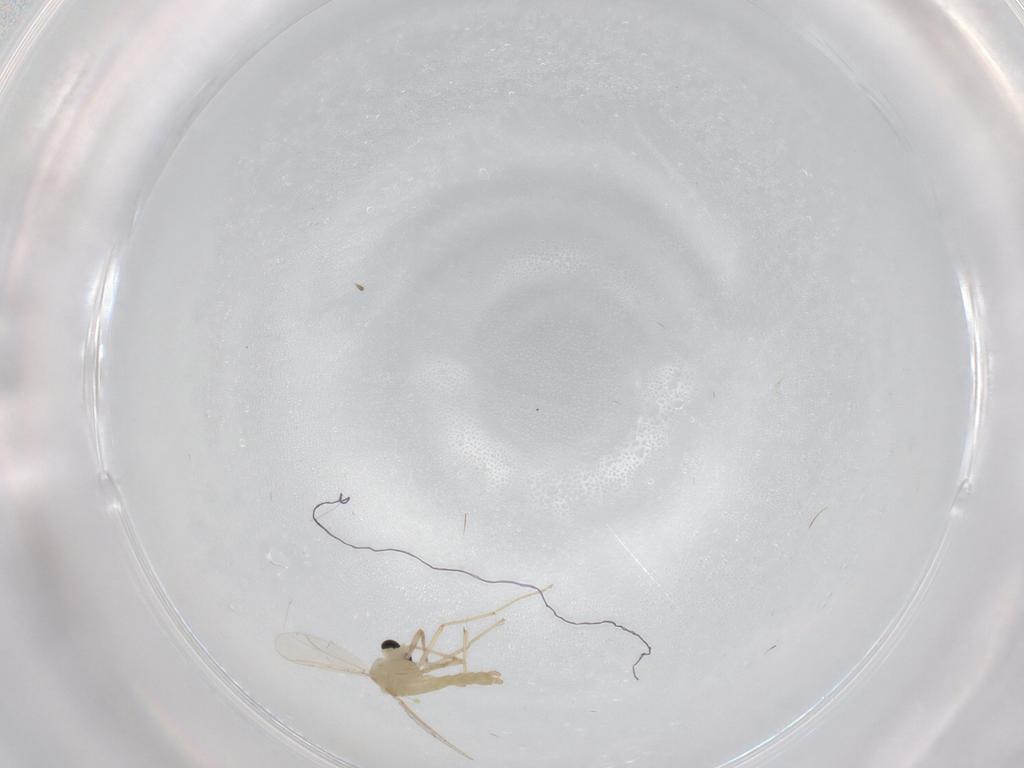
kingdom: Animalia
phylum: Arthropoda
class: Insecta
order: Diptera
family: Chironomidae
